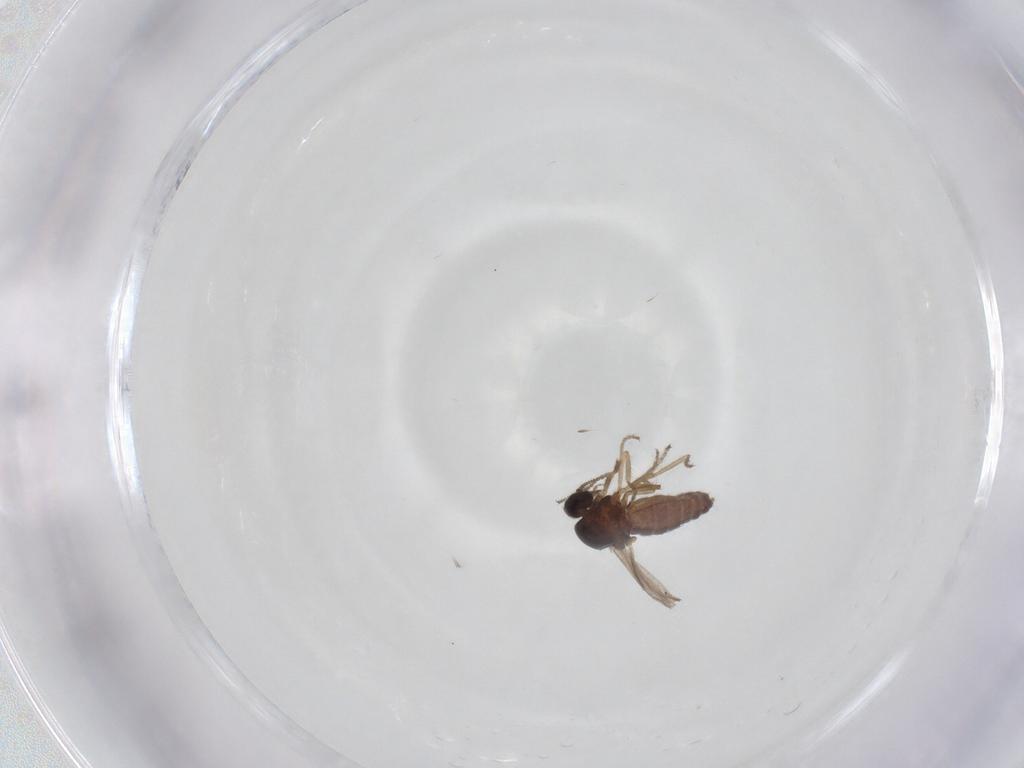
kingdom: Animalia
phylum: Arthropoda
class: Insecta
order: Diptera
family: Ceratopogonidae
